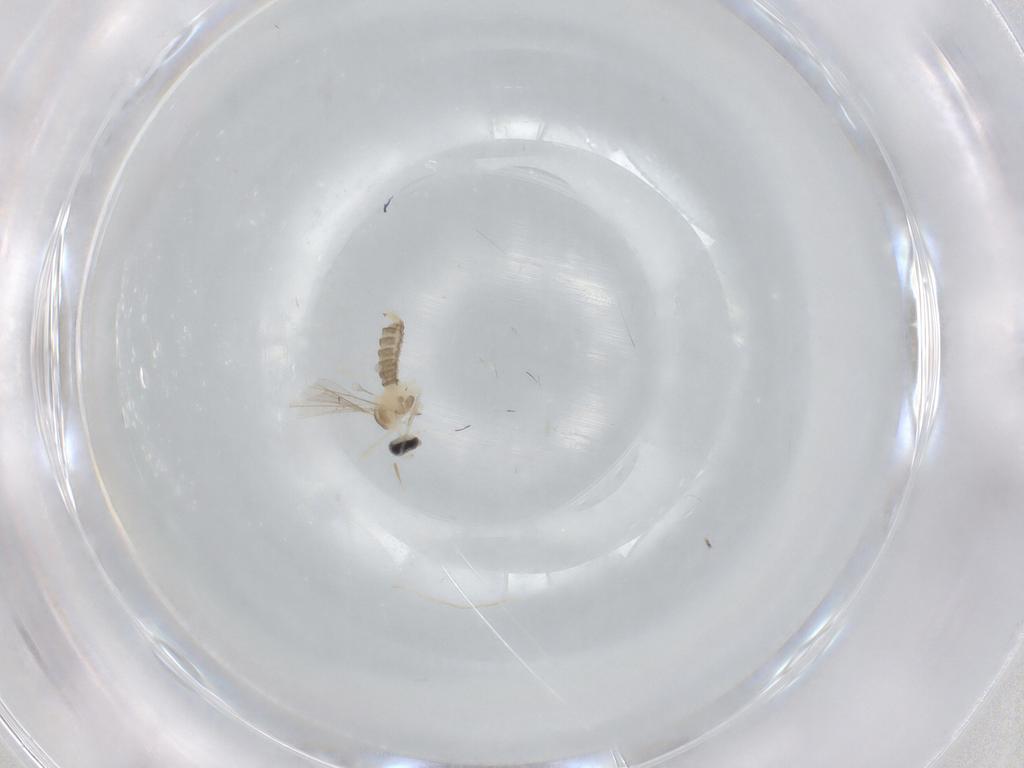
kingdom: Animalia
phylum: Arthropoda
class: Insecta
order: Diptera
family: Cecidomyiidae
